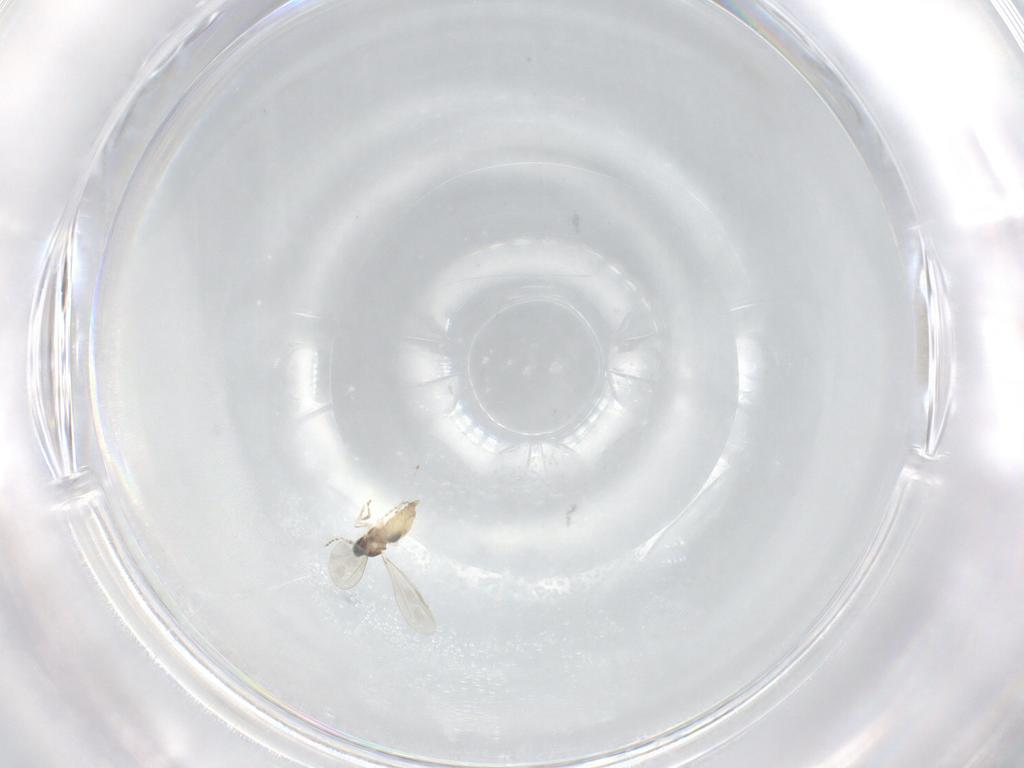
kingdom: Animalia
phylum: Arthropoda
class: Insecta
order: Diptera
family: Cecidomyiidae
